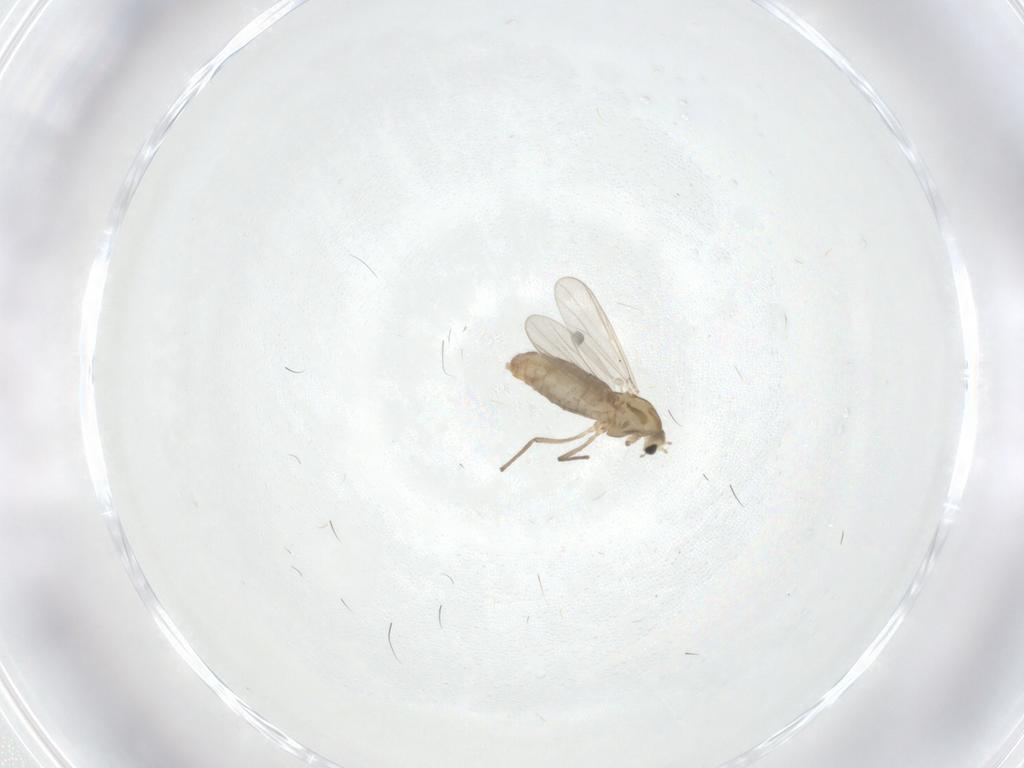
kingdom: Animalia
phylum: Arthropoda
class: Insecta
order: Diptera
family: Chironomidae
